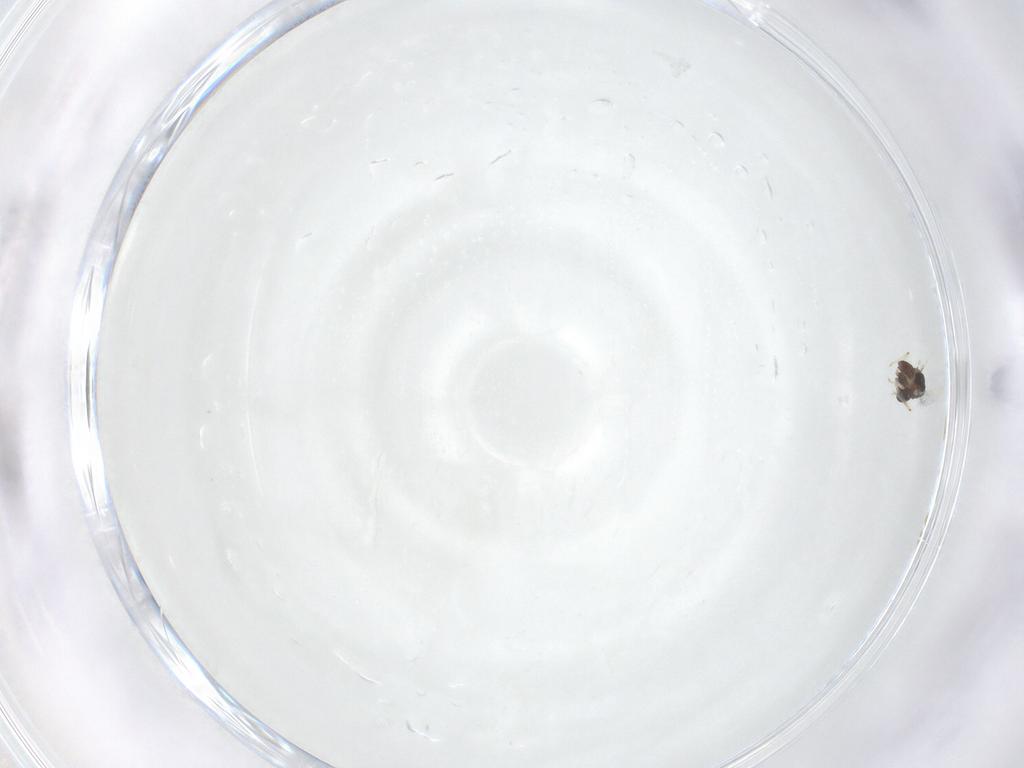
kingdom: Animalia
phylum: Arthropoda
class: Insecta
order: Diptera
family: Chironomidae
